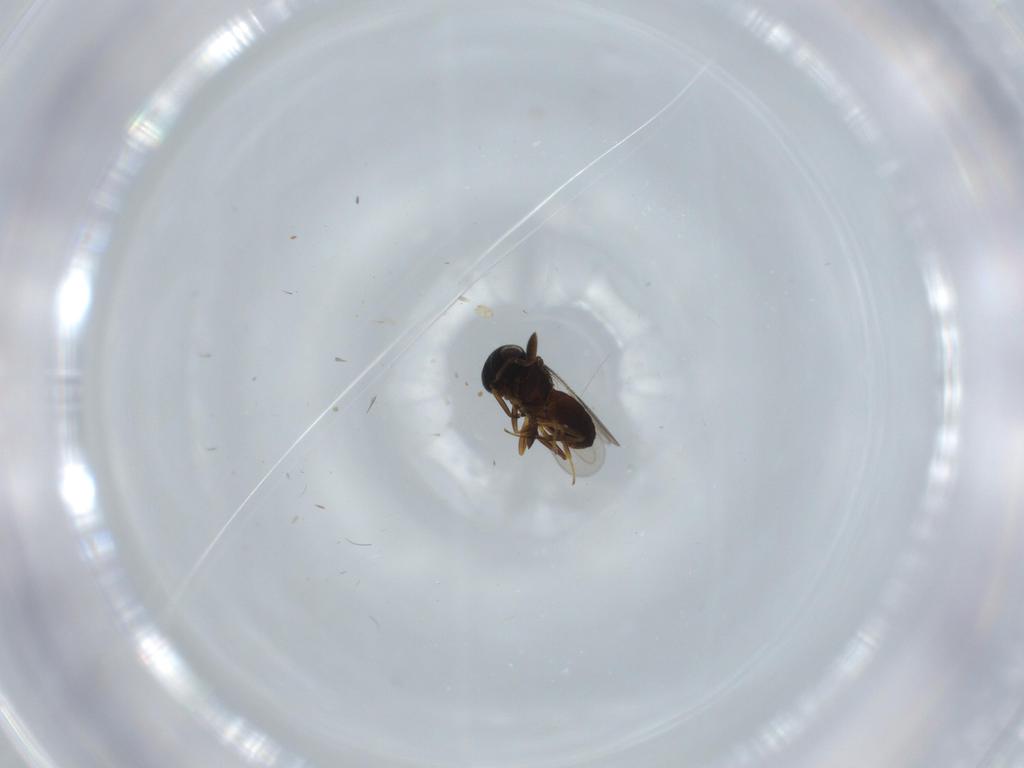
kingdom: Animalia
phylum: Arthropoda
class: Insecta
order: Coleoptera
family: Curculionidae
